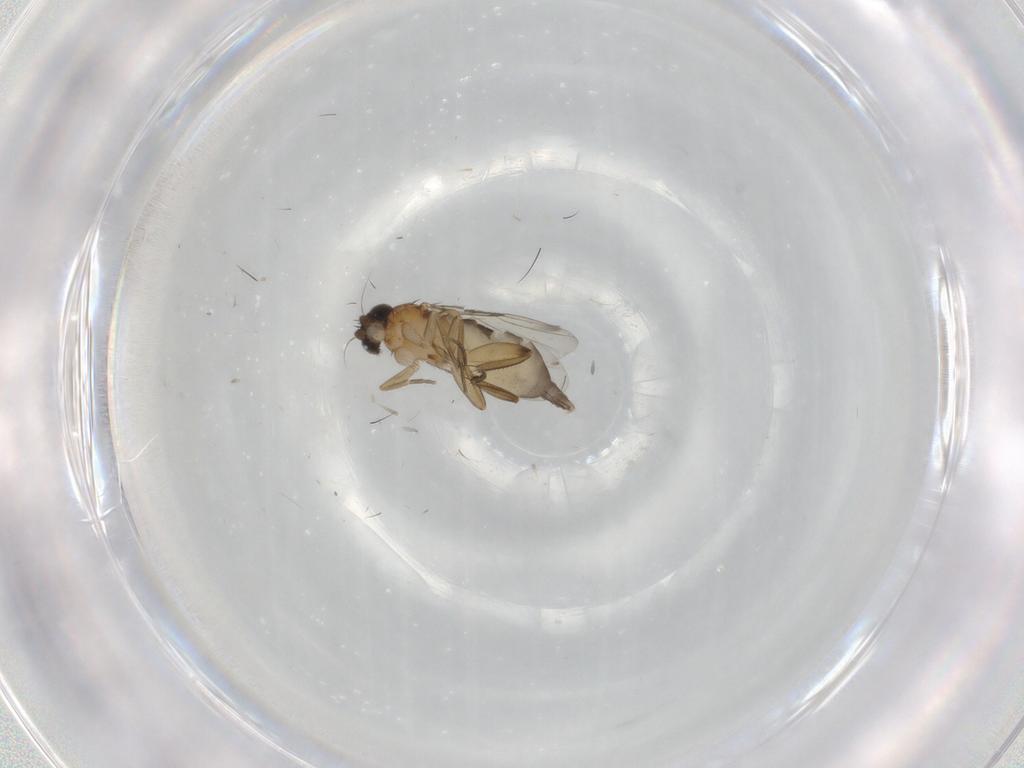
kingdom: Animalia
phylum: Arthropoda
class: Insecta
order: Diptera
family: Phoridae
